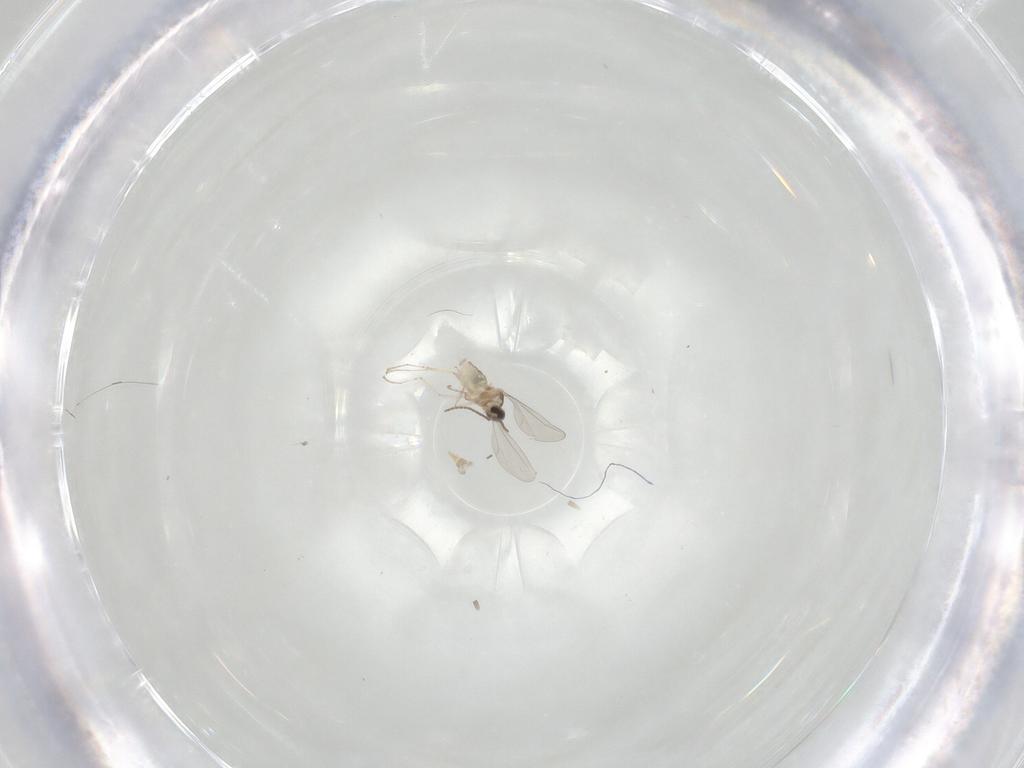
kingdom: Animalia
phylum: Arthropoda
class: Insecta
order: Diptera
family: Cecidomyiidae
